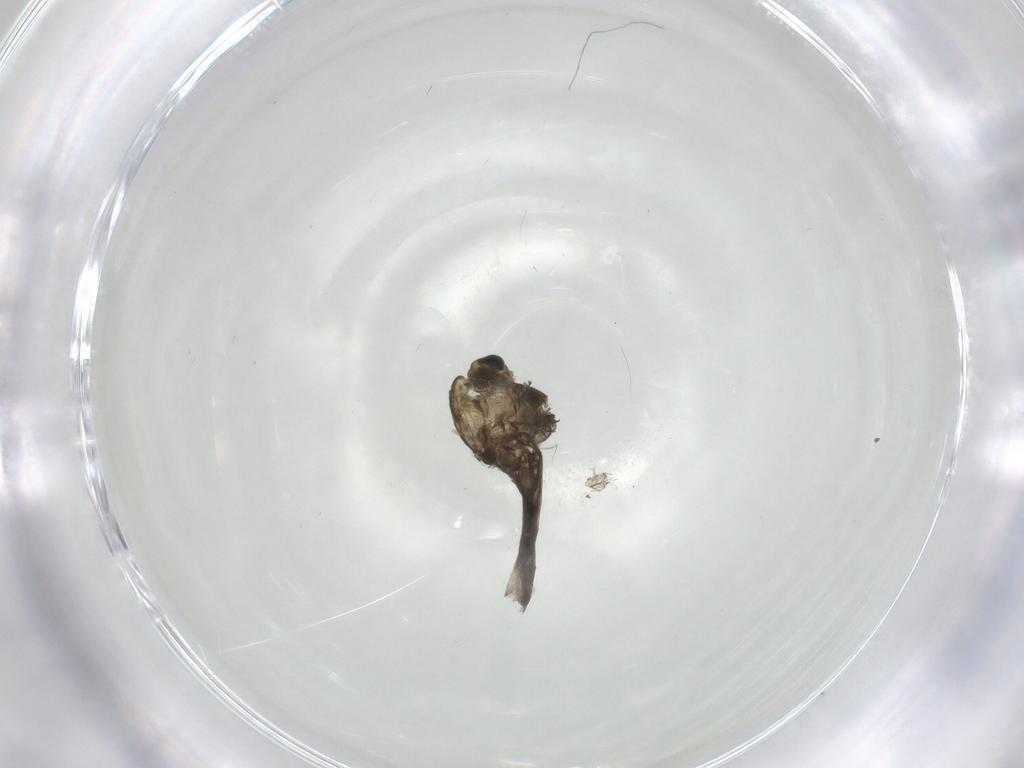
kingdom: Animalia
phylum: Arthropoda
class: Insecta
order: Diptera
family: Cecidomyiidae
